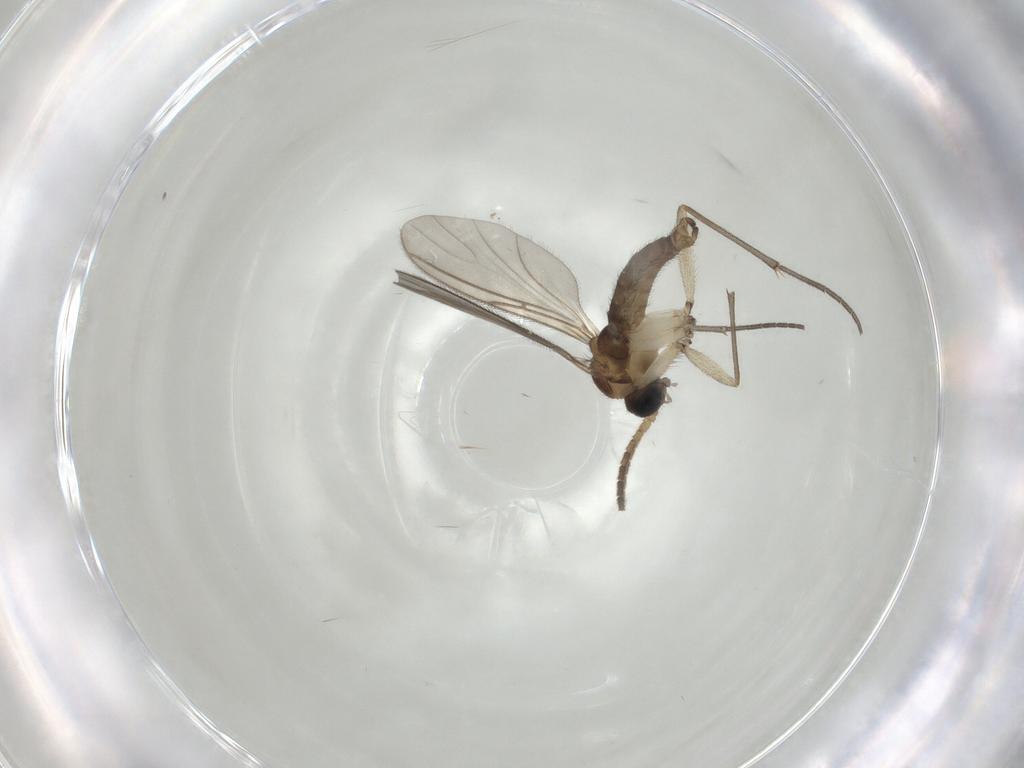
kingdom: Animalia
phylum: Arthropoda
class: Insecta
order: Diptera
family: Sciaridae
